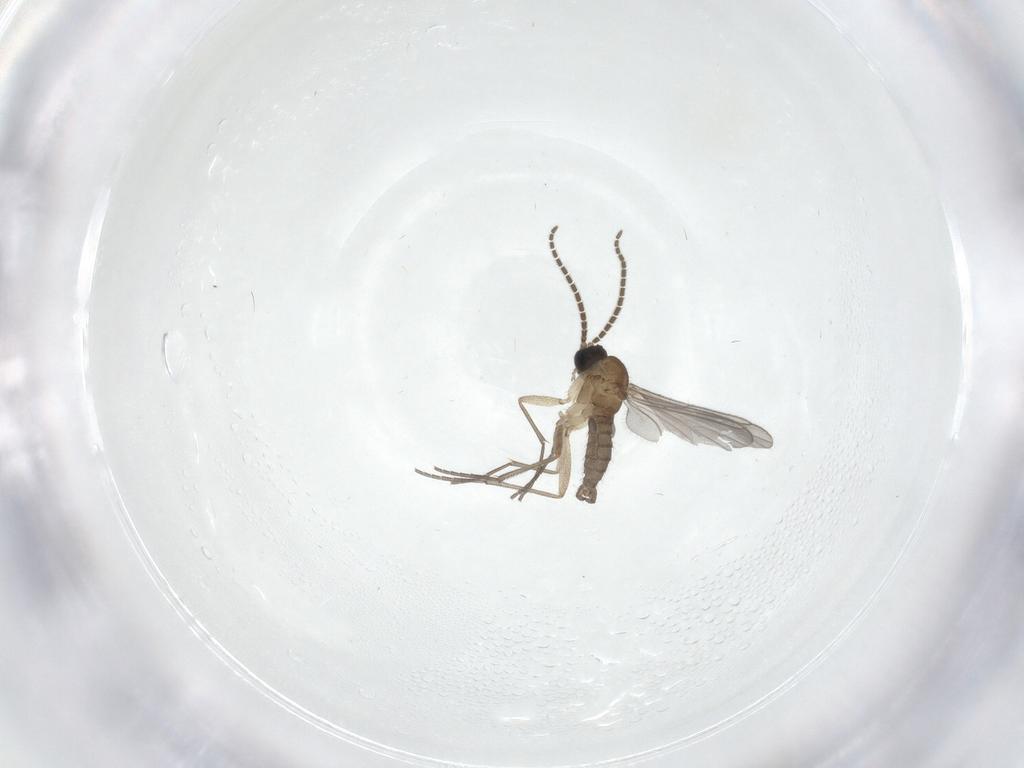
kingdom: Animalia
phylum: Arthropoda
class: Insecta
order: Diptera
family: Sciaridae
